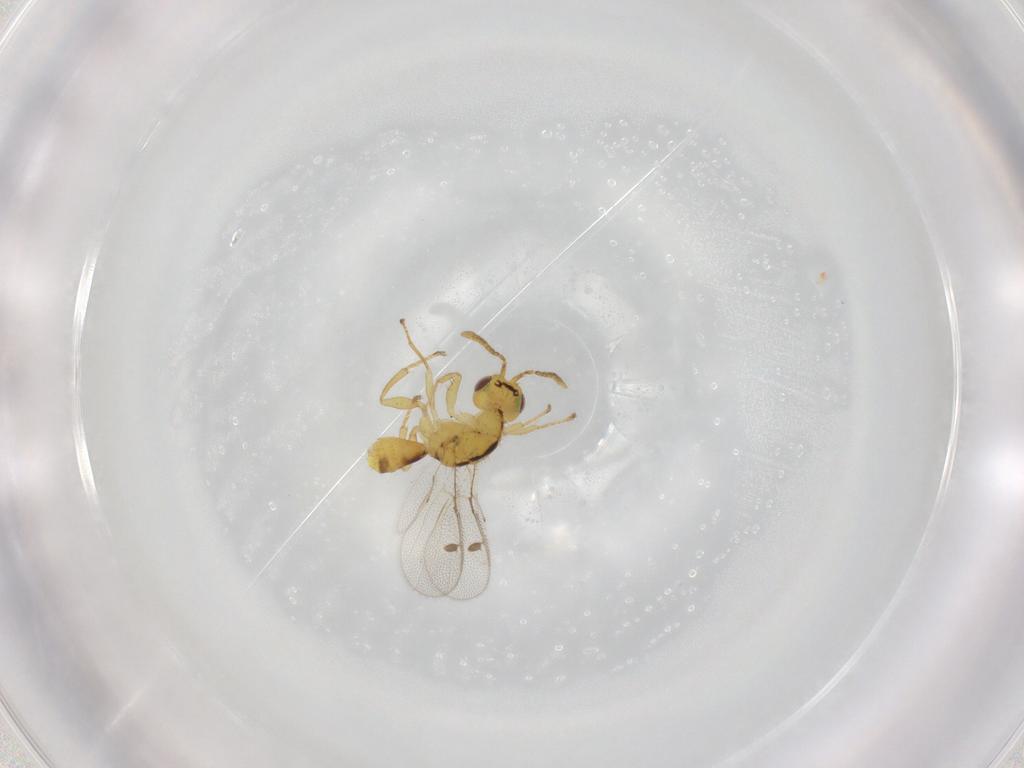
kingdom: Animalia
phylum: Arthropoda
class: Insecta
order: Hymenoptera
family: Megastigmidae
